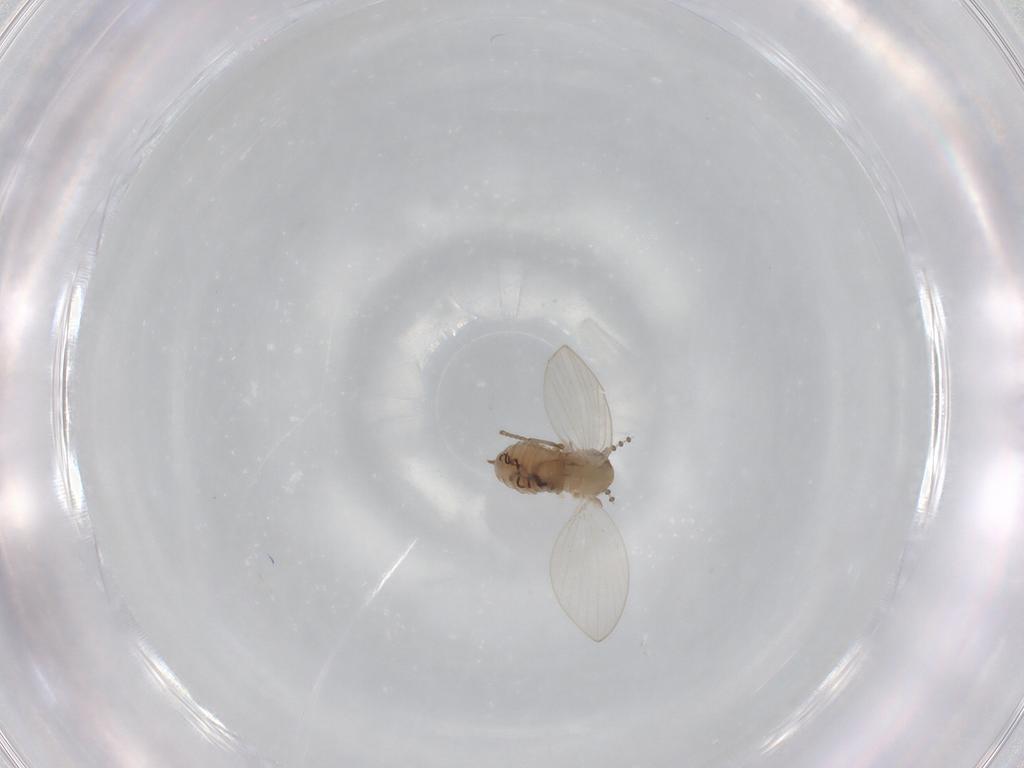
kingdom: Animalia
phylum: Arthropoda
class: Insecta
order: Diptera
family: Psychodidae
